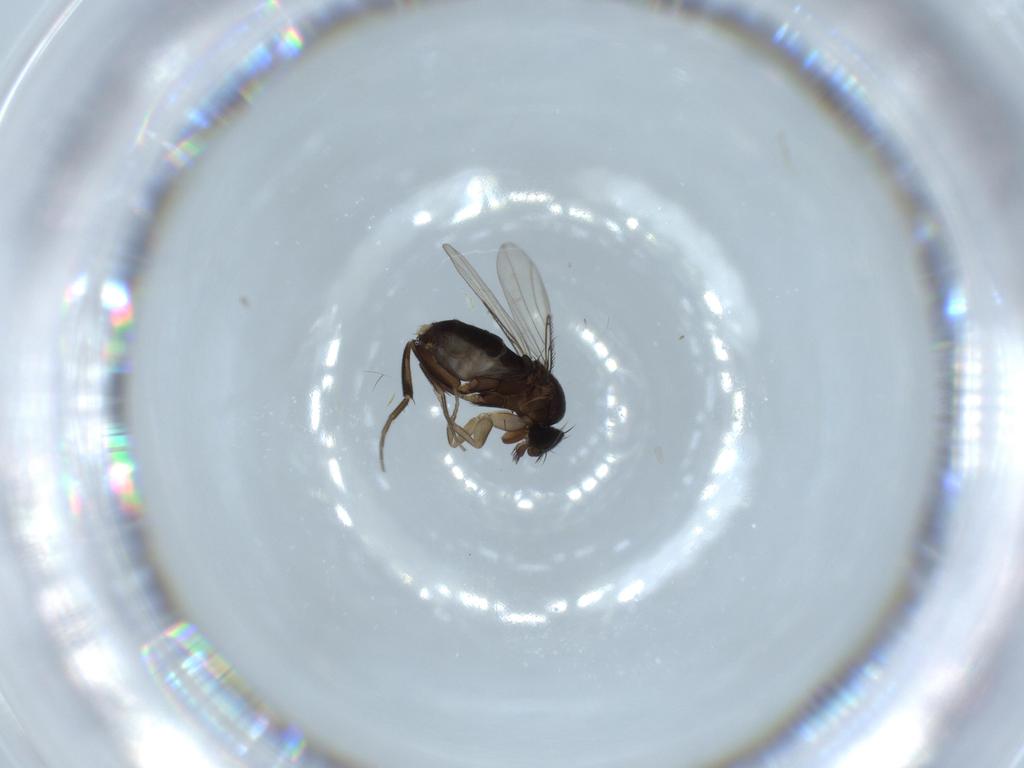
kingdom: Animalia
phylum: Arthropoda
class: Insecta
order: Diptera
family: Phoridae
